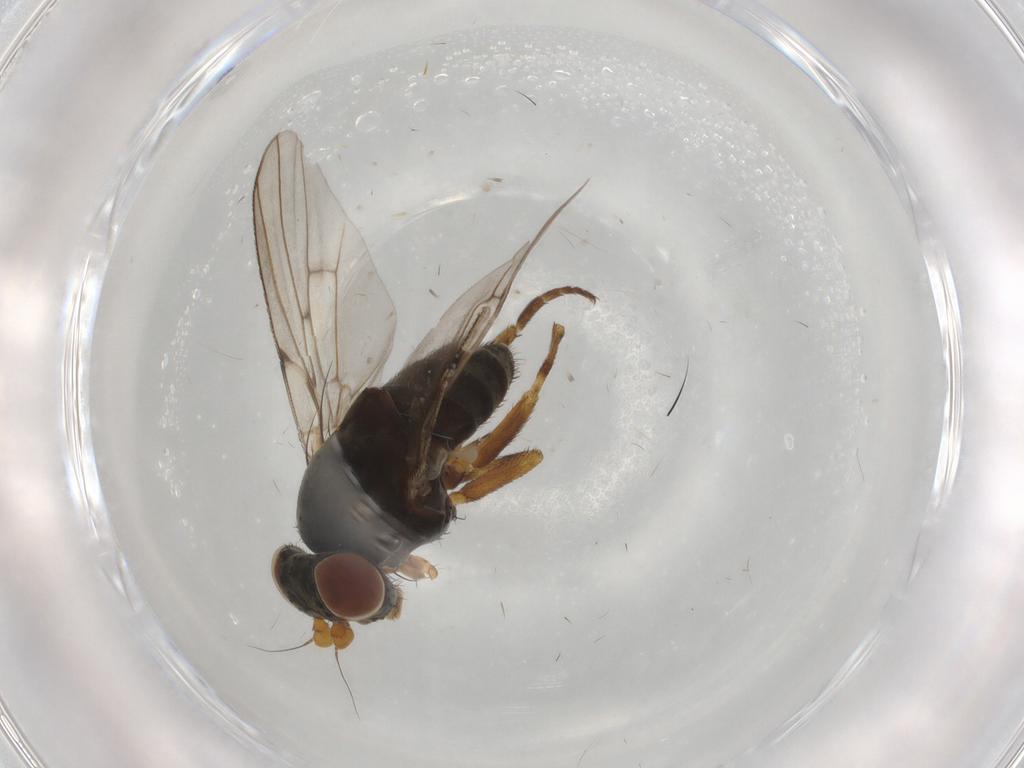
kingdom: Animalia
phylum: Arthropoda
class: Insecta
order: Diptera
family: Odiniidae
